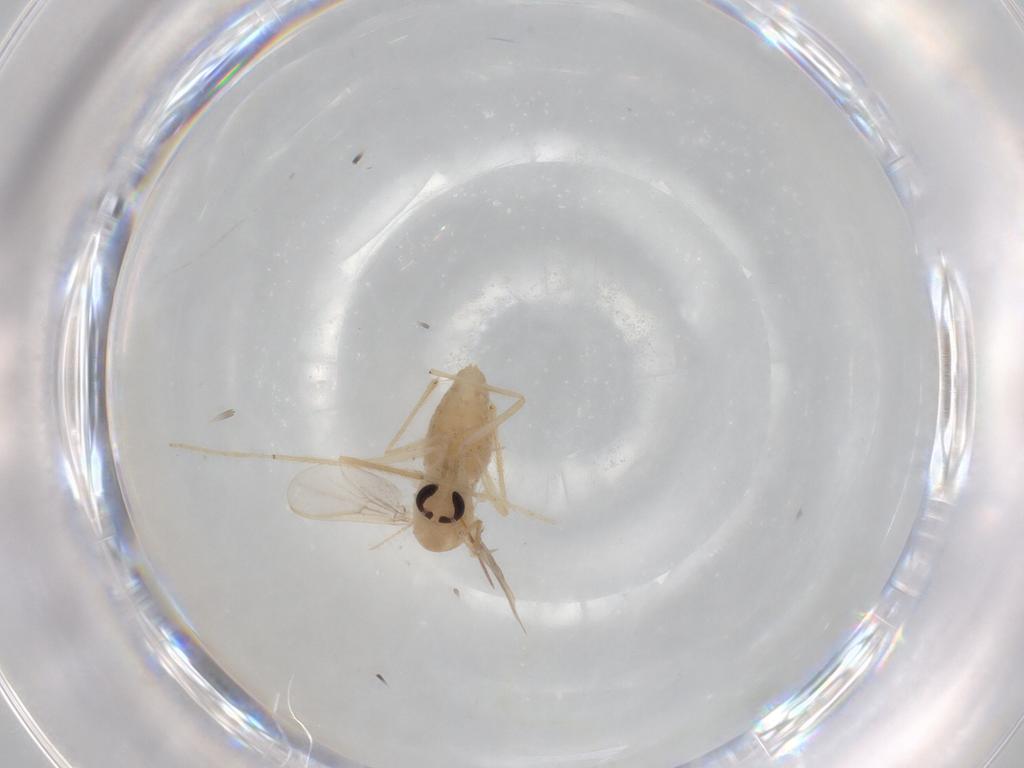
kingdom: Animalia
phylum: Arthropoda
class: Insecta
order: Diptera
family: Chironomidae
